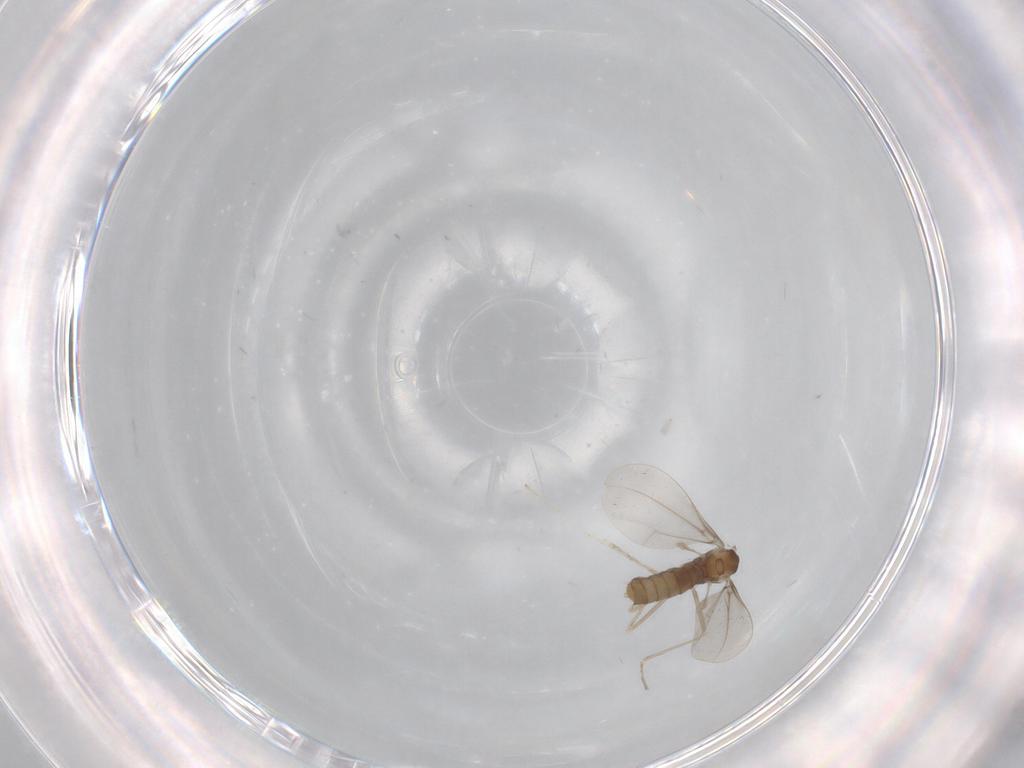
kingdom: Animalia
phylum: Arthropoda
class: Insecta
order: Diptera
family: Cecidomyiidae
